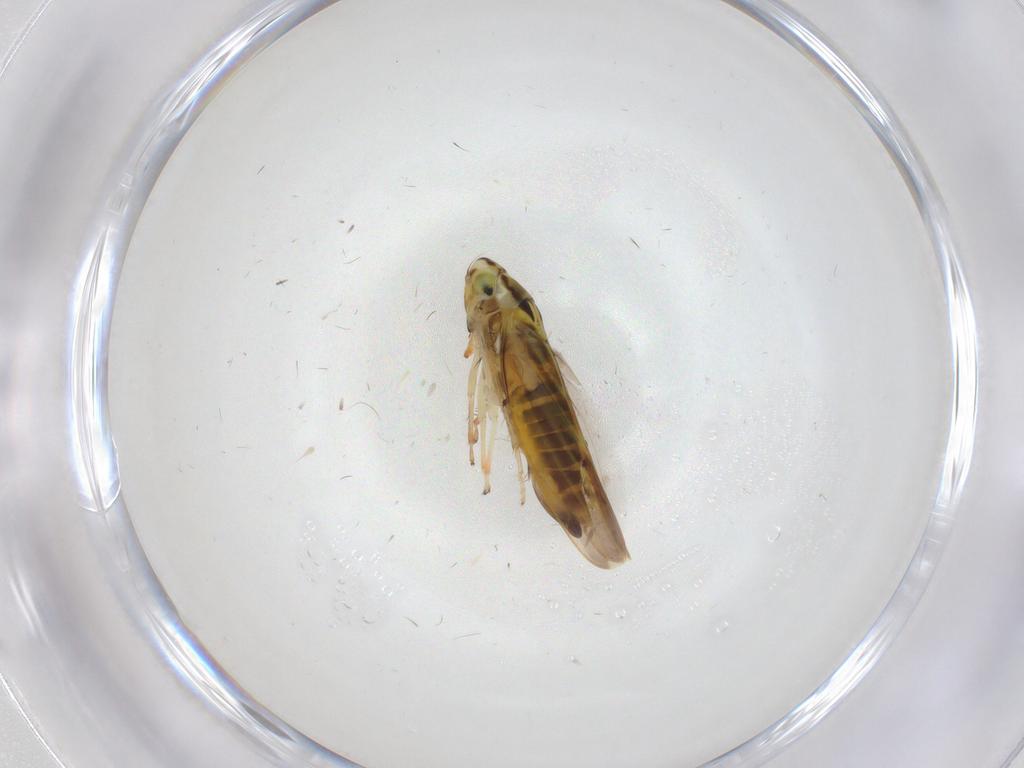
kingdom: Animalia
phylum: Arthropoda
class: Insecta
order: Hemiptera
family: Cicadellidae
